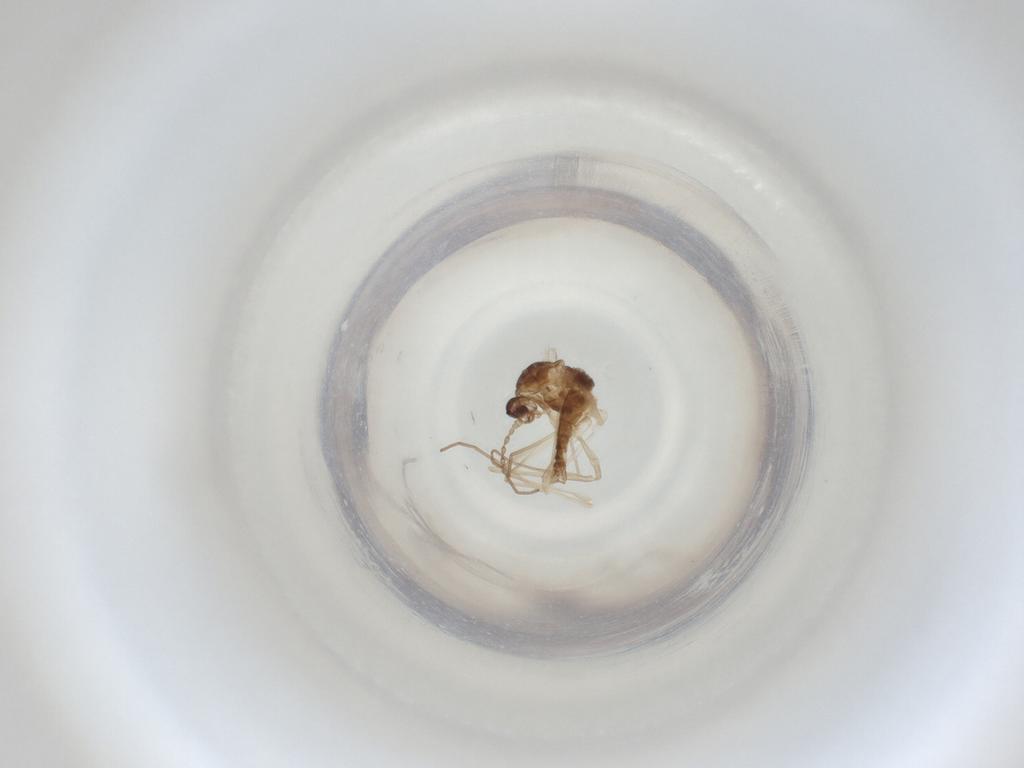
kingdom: Animalia
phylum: Arthropoda
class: Insecta
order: Diptera
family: Cecidomyiidae
